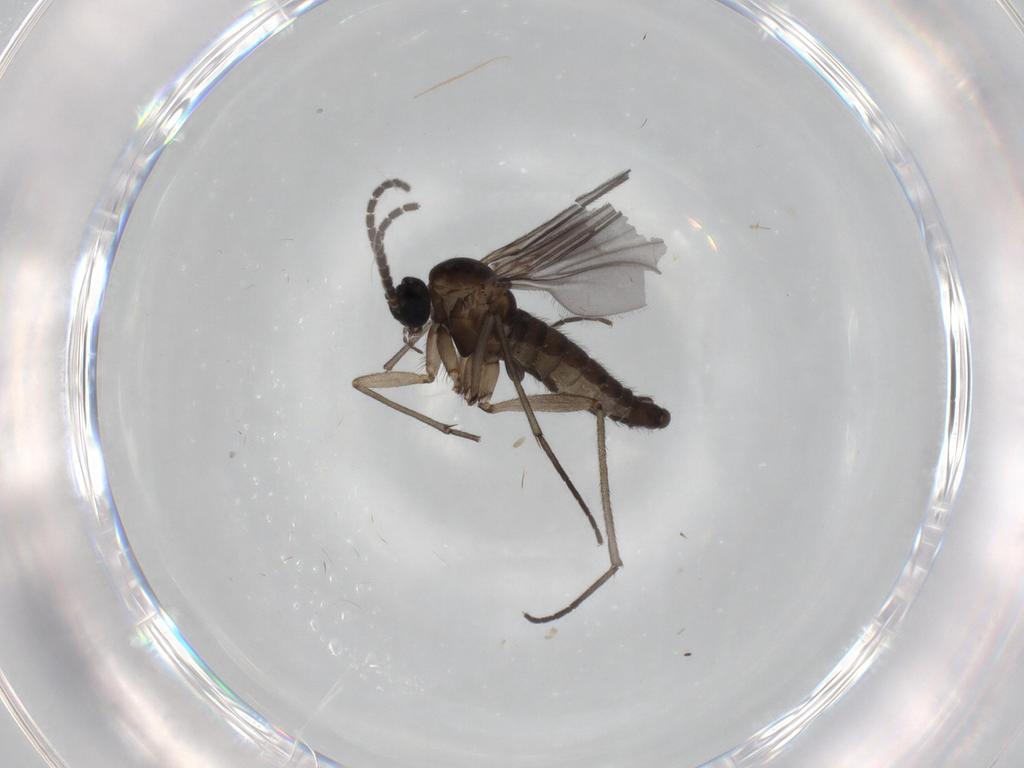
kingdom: Animalia
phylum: Arthropoda
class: Insecta
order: Diptera
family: Sciaridae
